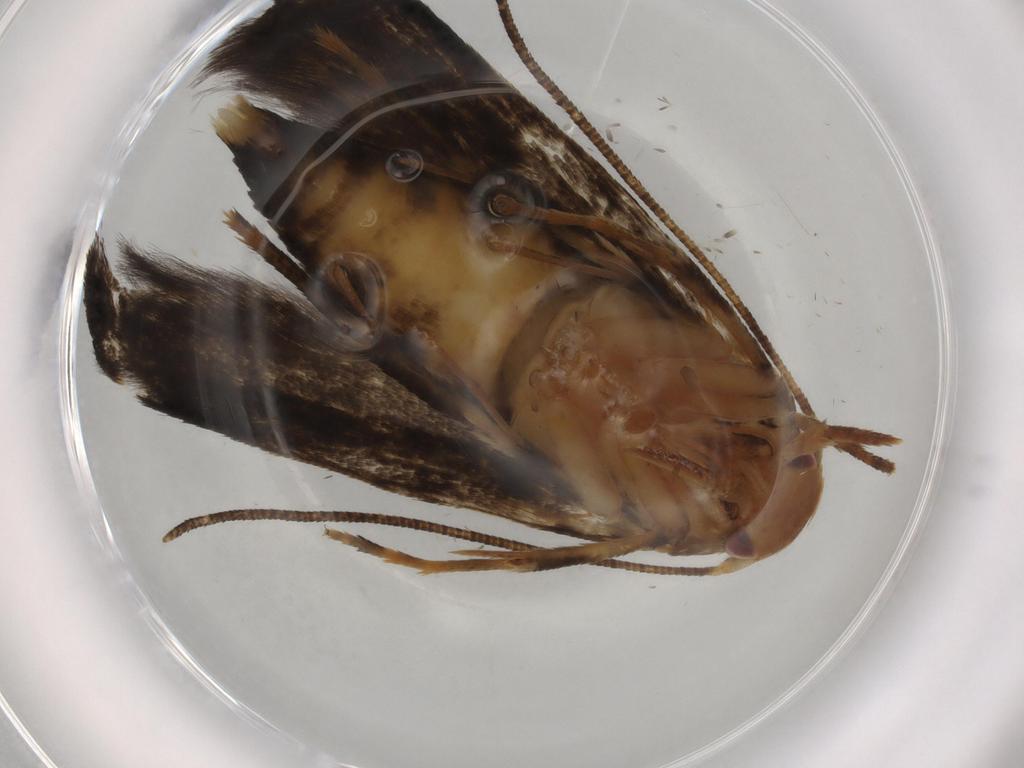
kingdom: Animalia
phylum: Arthropoda
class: Insecta
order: Lepidoptera
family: Momphidae
